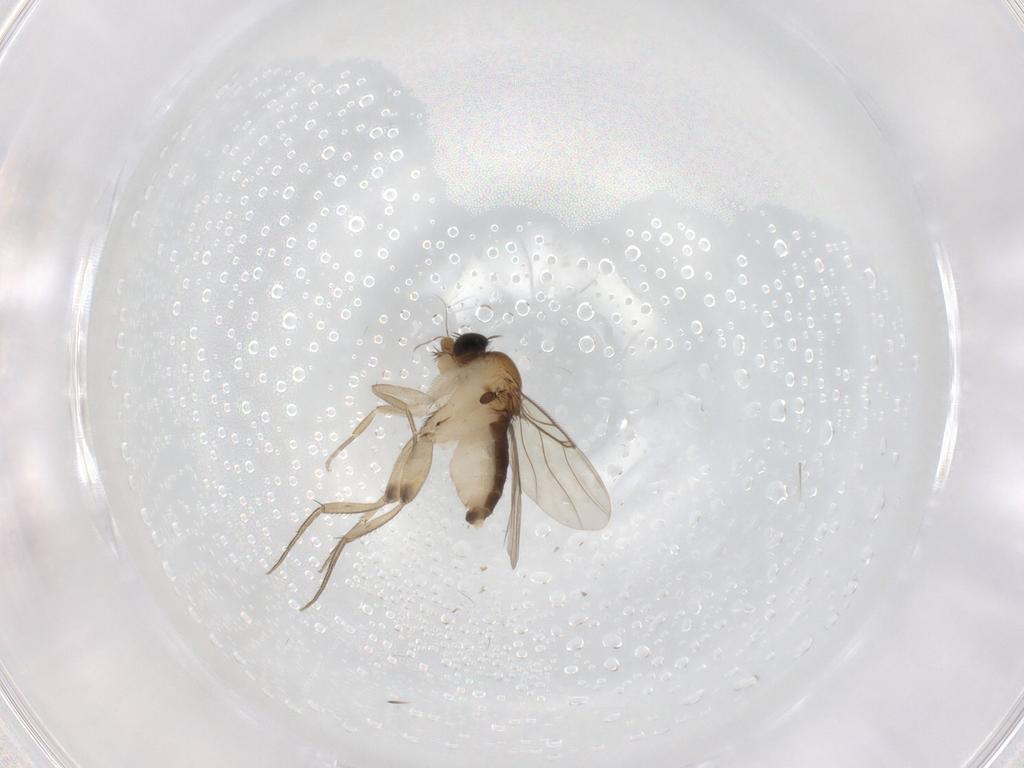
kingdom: Animalia
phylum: Arthropoda
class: Insecta
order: Diptera
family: Phoridae
